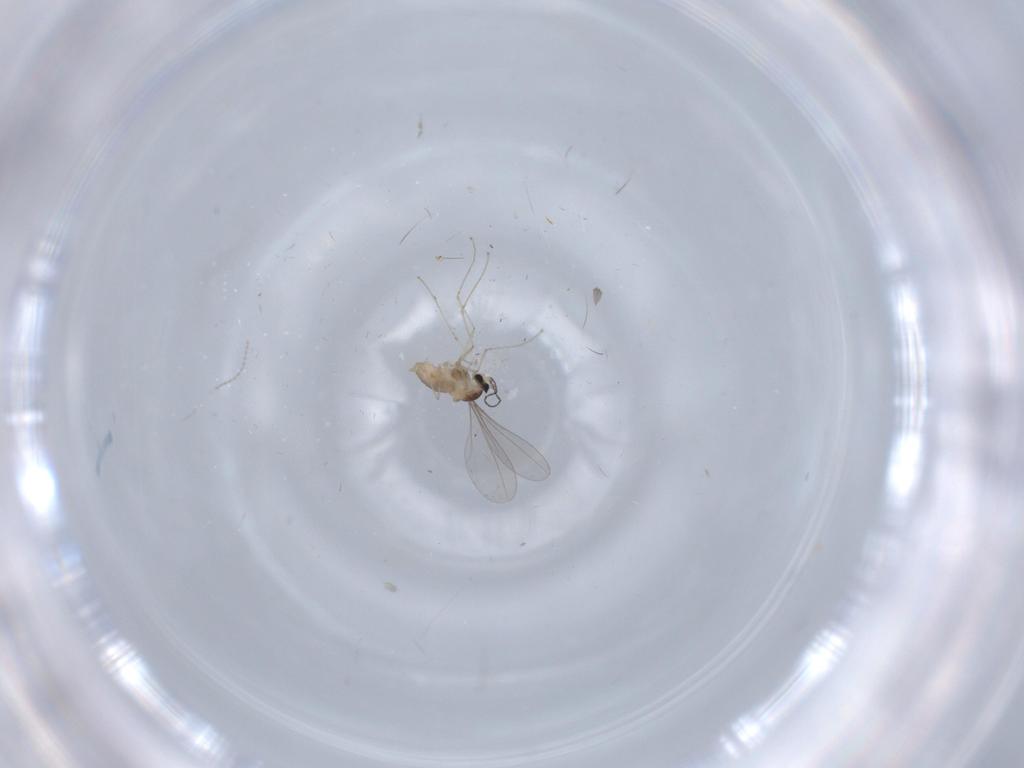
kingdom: Animalia
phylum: Arthropoda
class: Insecta
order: Diptera
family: Cecidomyiidae
